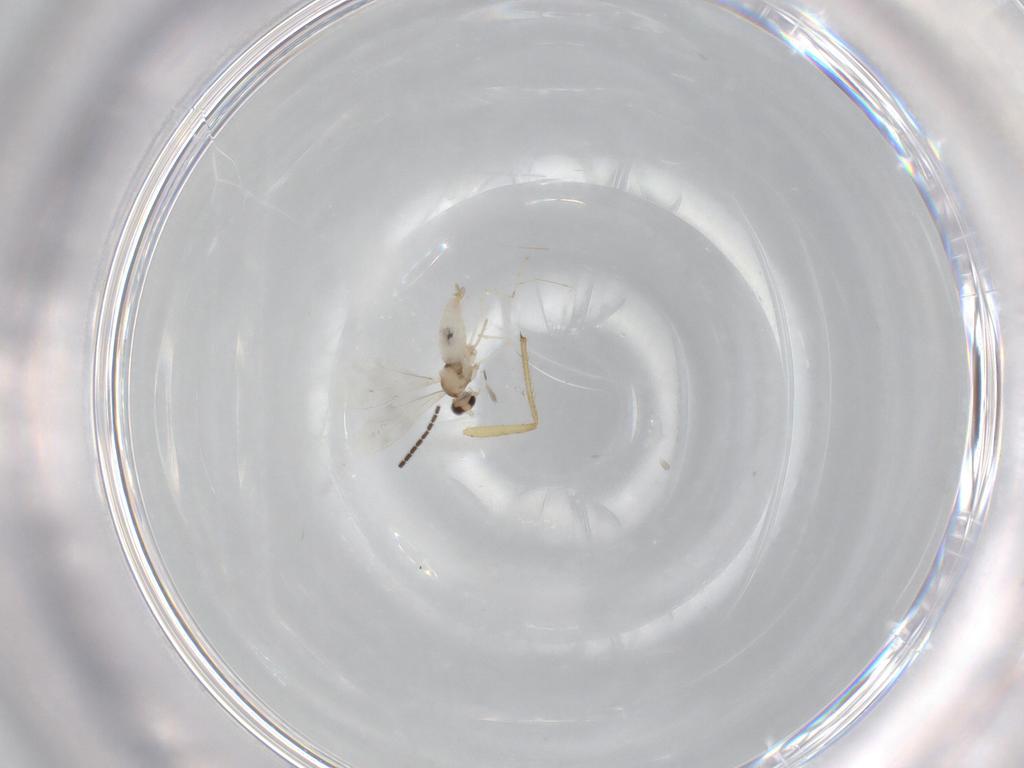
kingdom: Animalia
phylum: Arthropoda
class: Insecta
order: Diptera
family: Cecidomyiidae
